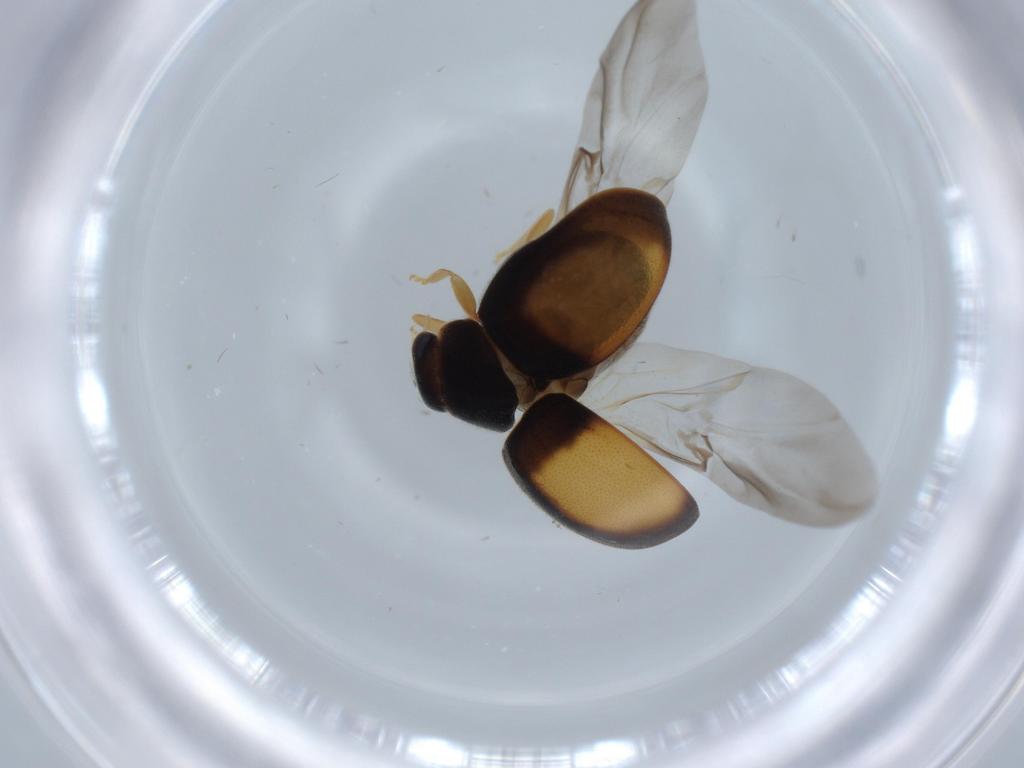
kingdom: Animalia
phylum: Arthropoda
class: Insecta
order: Coleoptera
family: Coccinellidae
